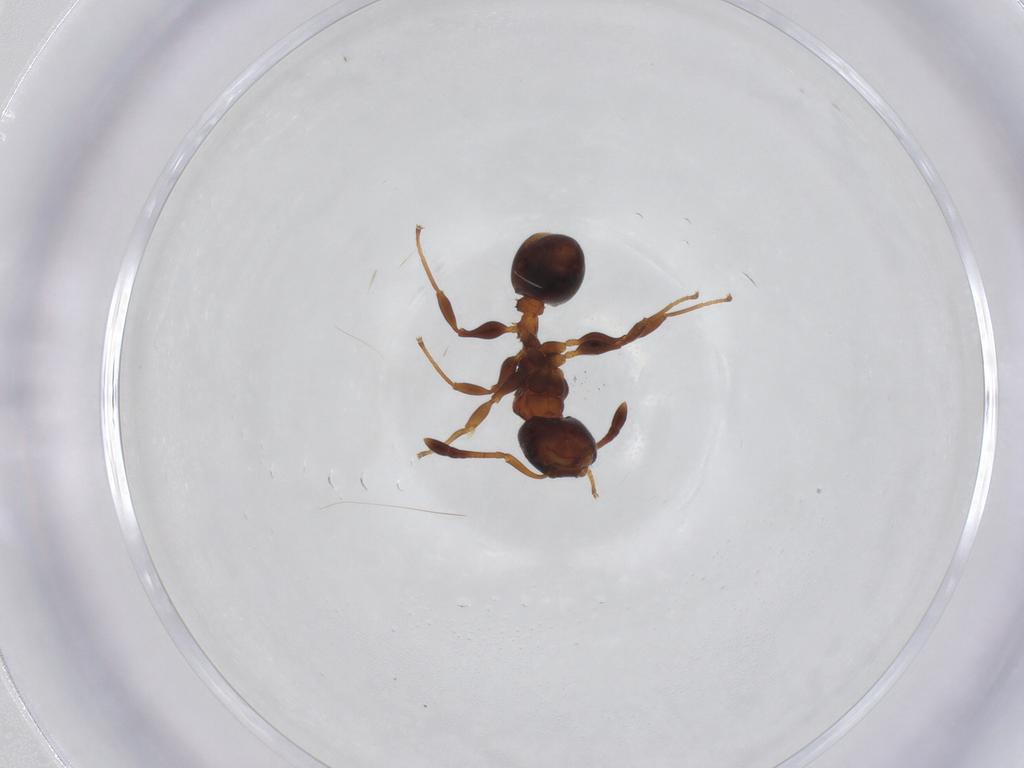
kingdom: Animalia
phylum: Arthropoda
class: Insecta
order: Hymenoptera
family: Formicidae
